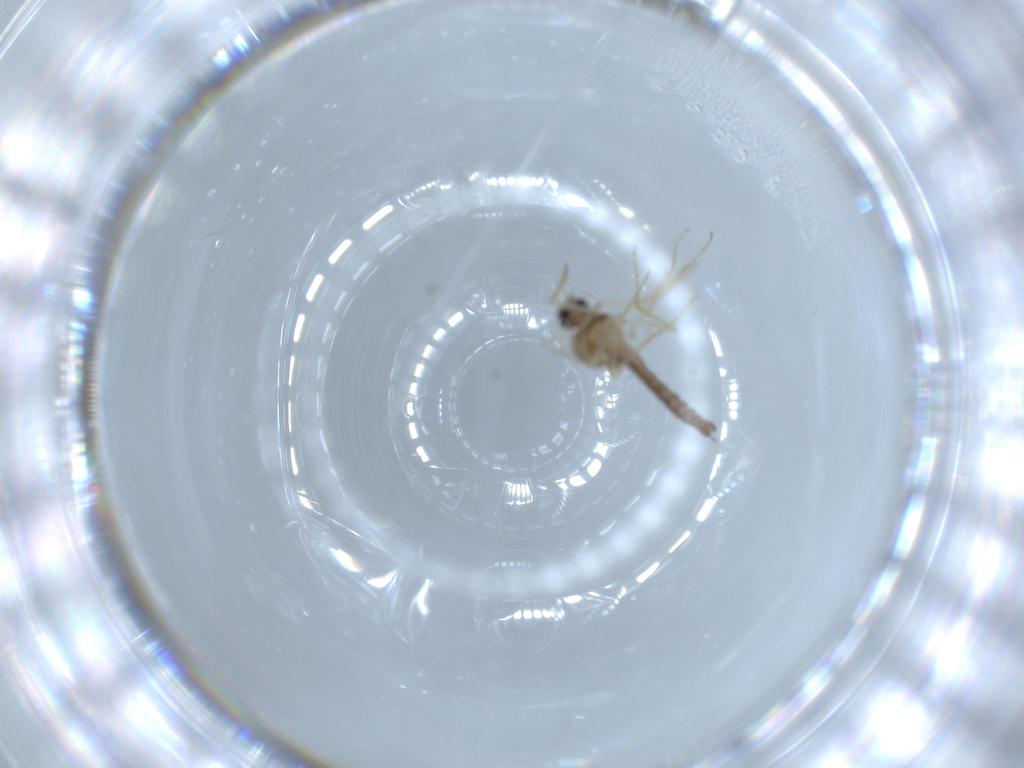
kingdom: Animalia
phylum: Arthropoda
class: Insecta
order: Diptera
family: Ceratopogonidae
